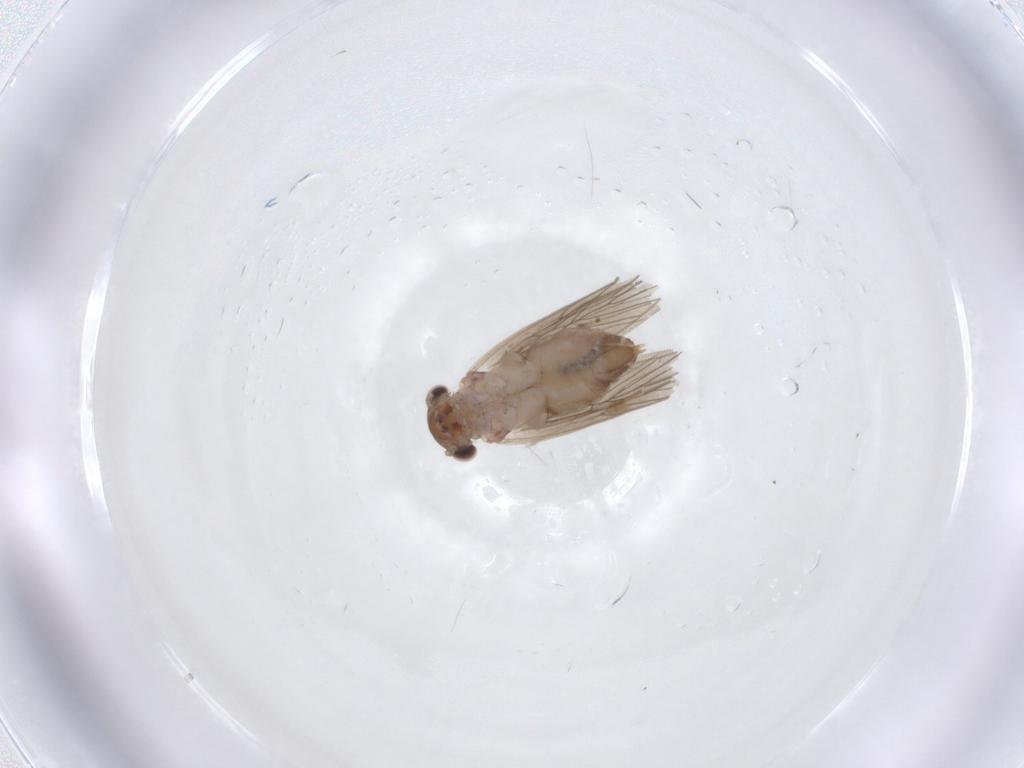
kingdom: Animalia
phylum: Arthropoda
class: Insecta
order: Psocodea
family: Lepidopsocidae
